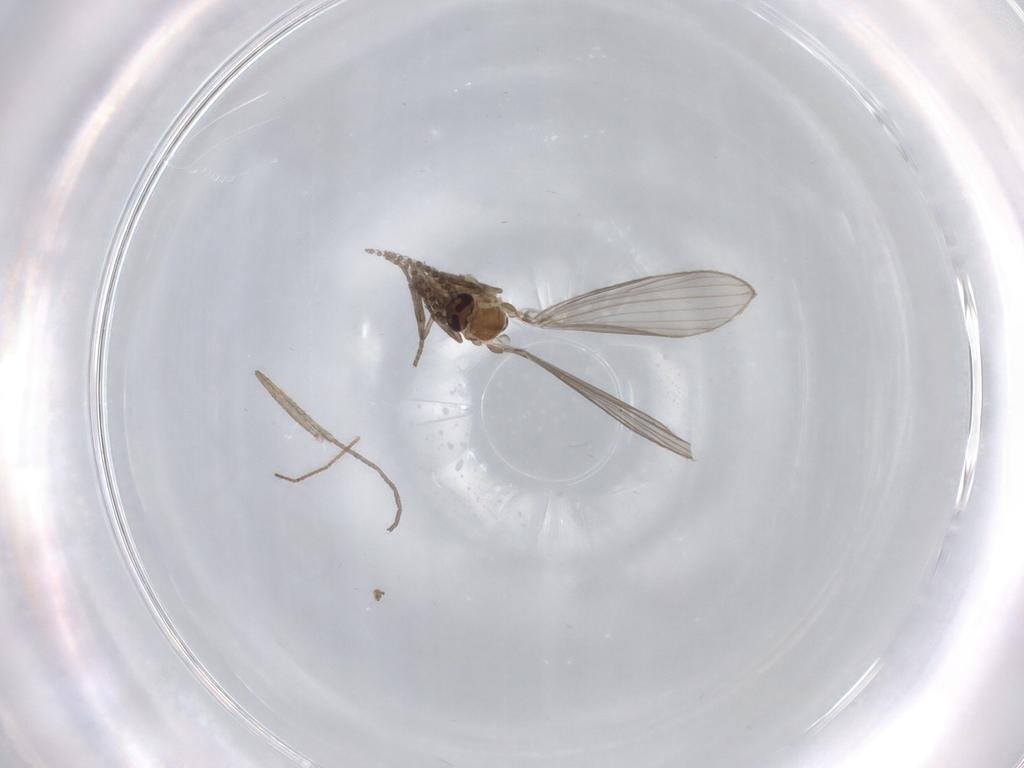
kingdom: Animalia
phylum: Arthropoda
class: Insecta
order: Diptera
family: Psychodidae
